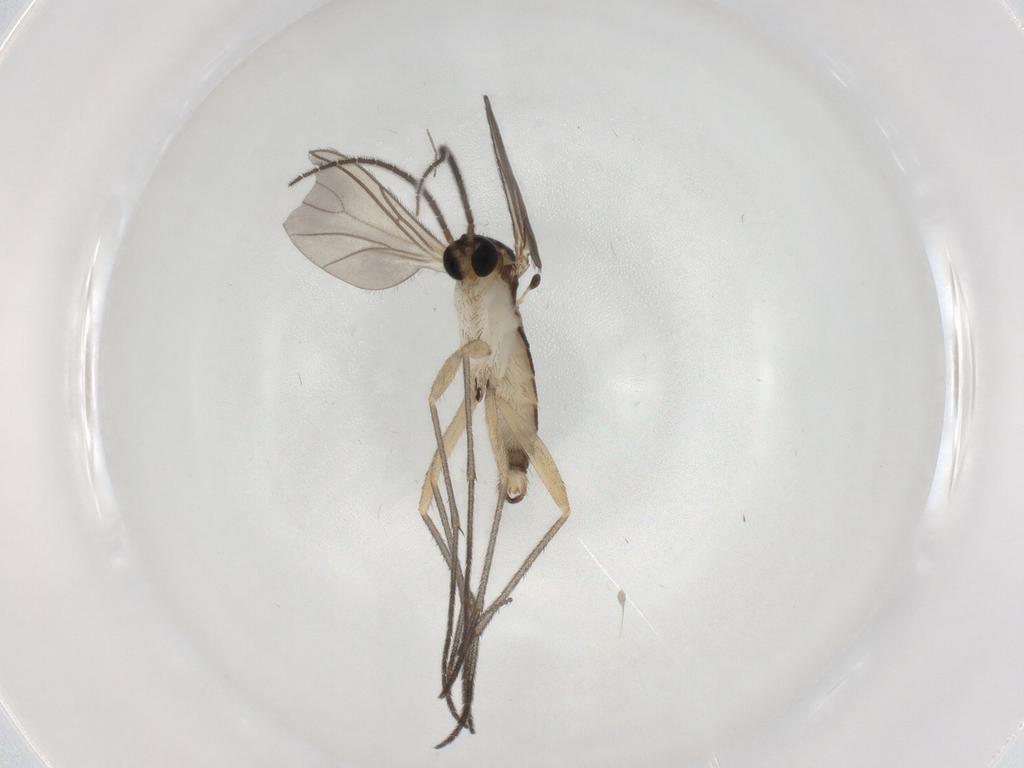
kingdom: Animalia
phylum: Arthropoda
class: Insecta
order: Diptera
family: Sciaridae
